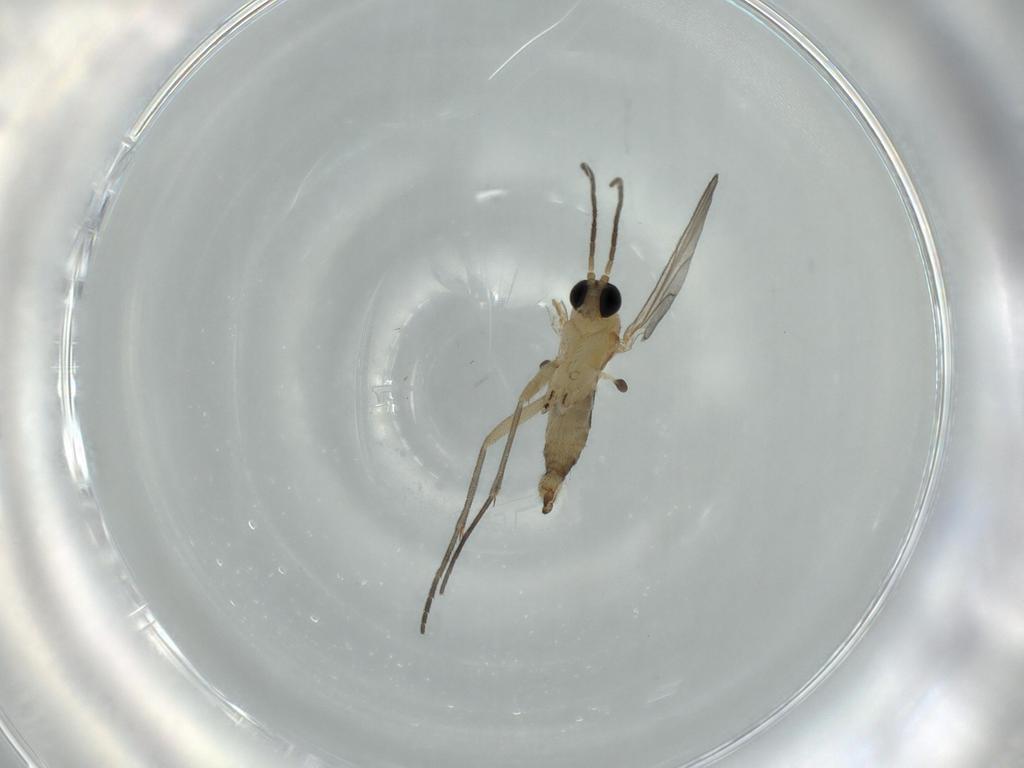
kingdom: Animalia
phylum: Arthropoda
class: Insecta
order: Diptera
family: Sciaridae
